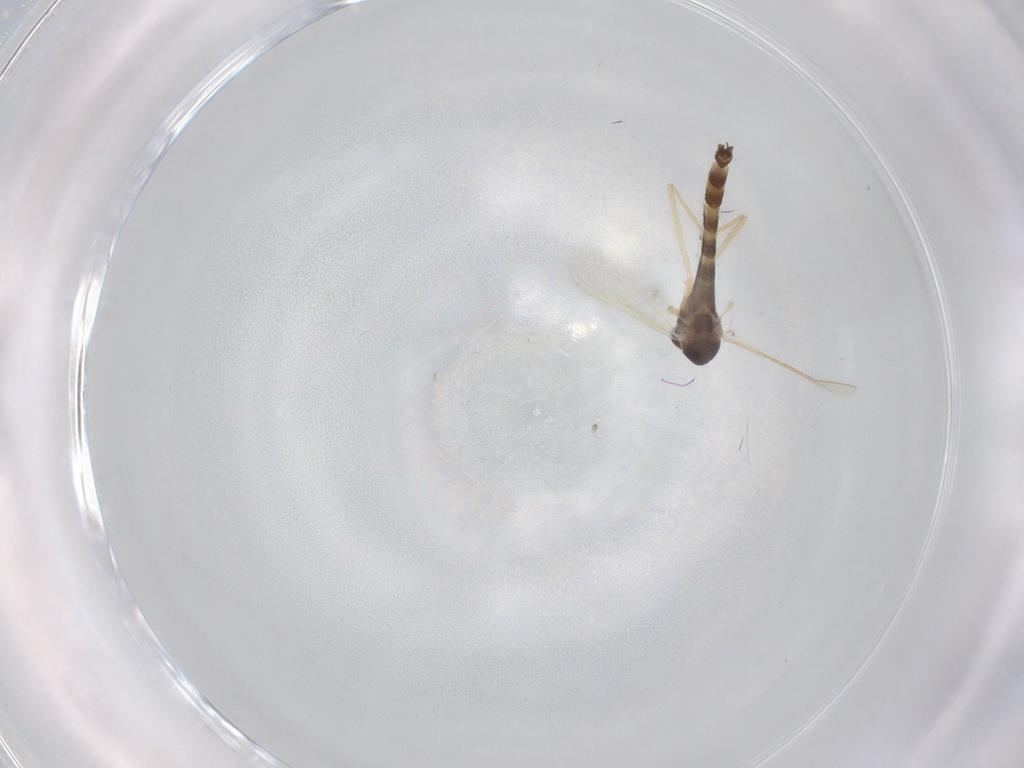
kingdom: Animalia
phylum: Arthropoda
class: Insecta
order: Diptera
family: Chironomidae
